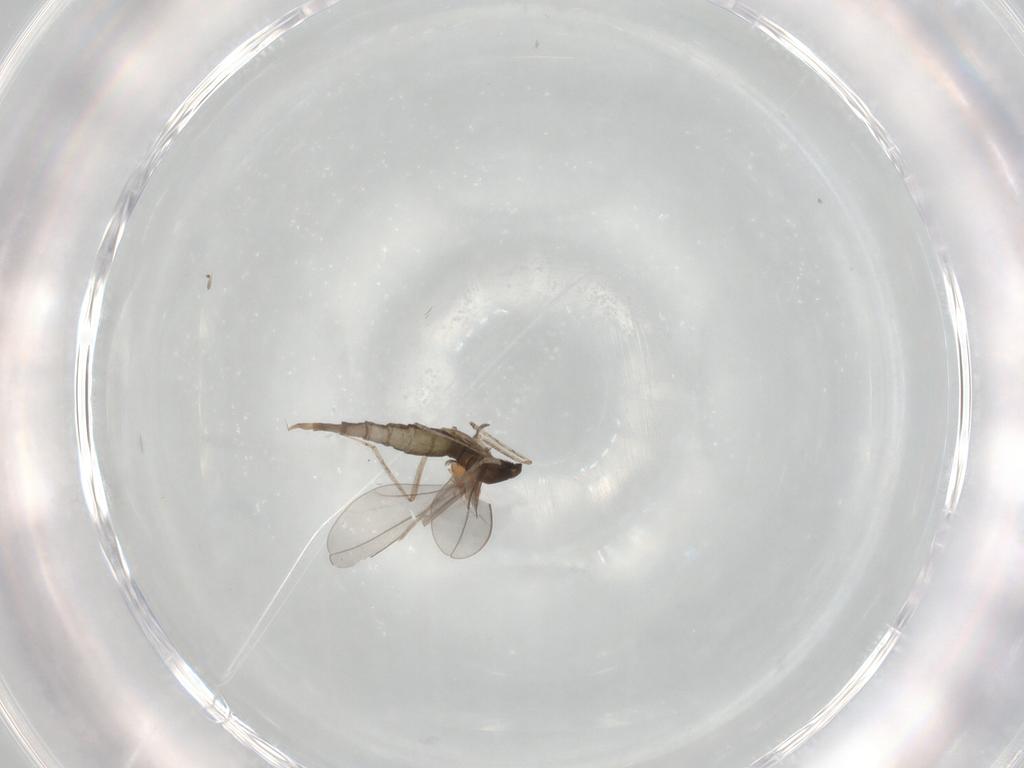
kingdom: Animalia
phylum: Arthropoda
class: Insecta
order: Diptera
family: Cecidomyiidae
